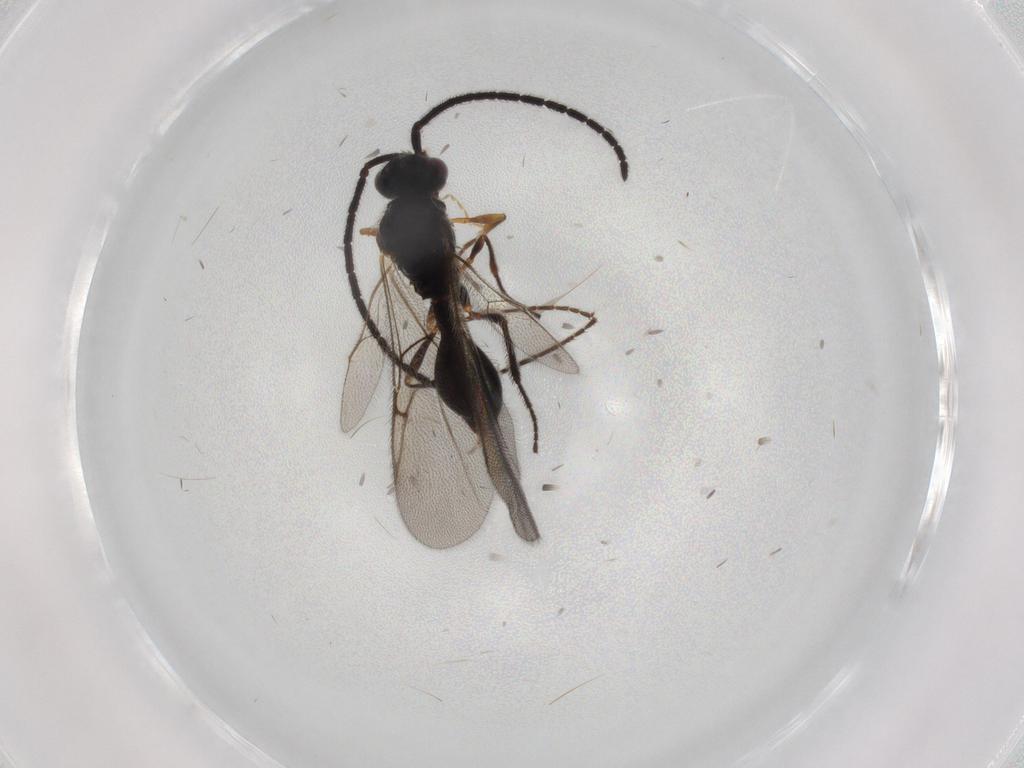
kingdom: Animalia
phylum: Arthropoda
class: Insecta
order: Hymenoptera
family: Diapriidae
